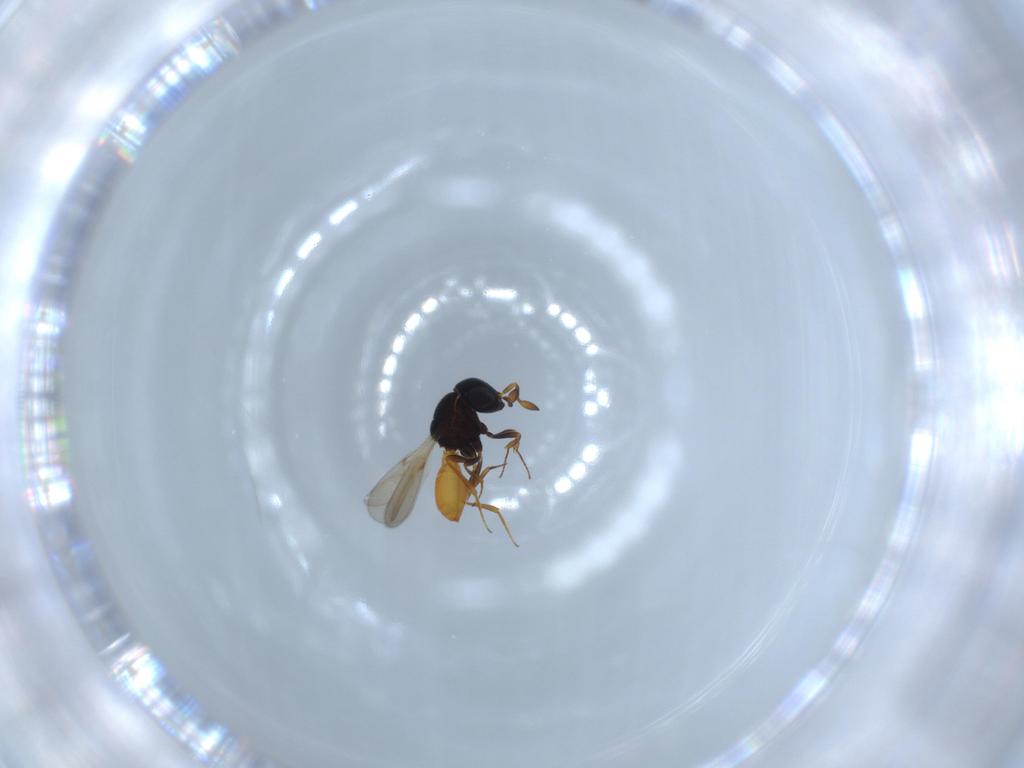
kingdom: Animalia
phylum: Arthropoda
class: Insecta
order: Hymenoptera
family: Scelionidae
